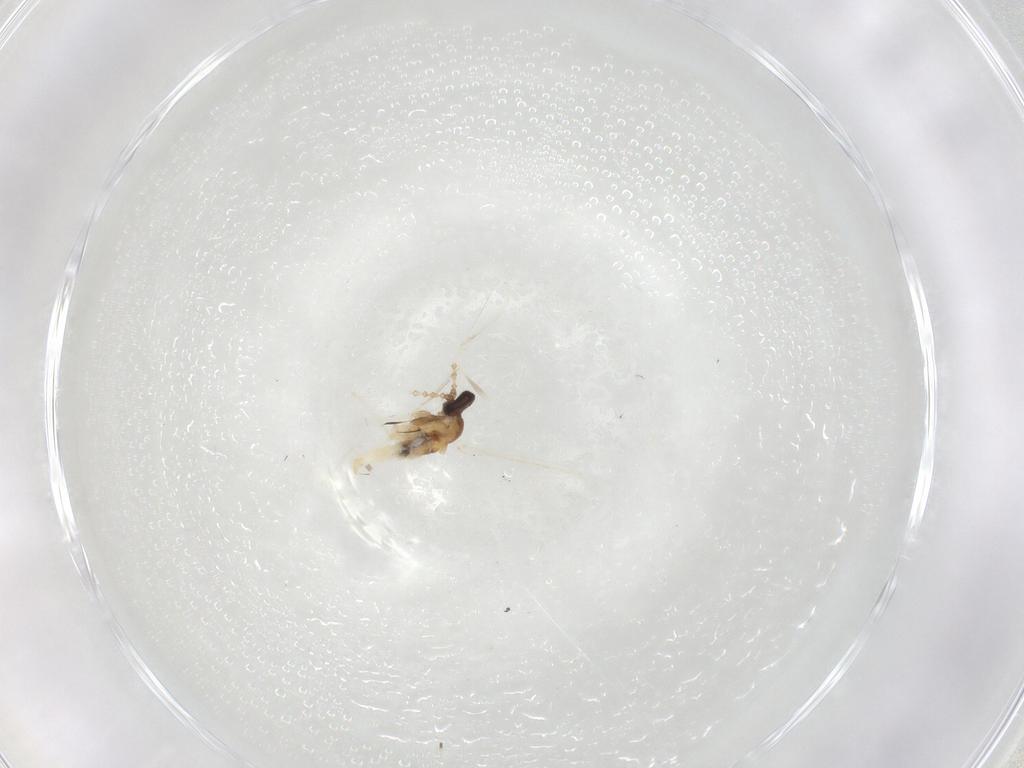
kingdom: Animalia
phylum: Arthropoda
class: Insecta
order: Diptera
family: Cecidomyiidae
